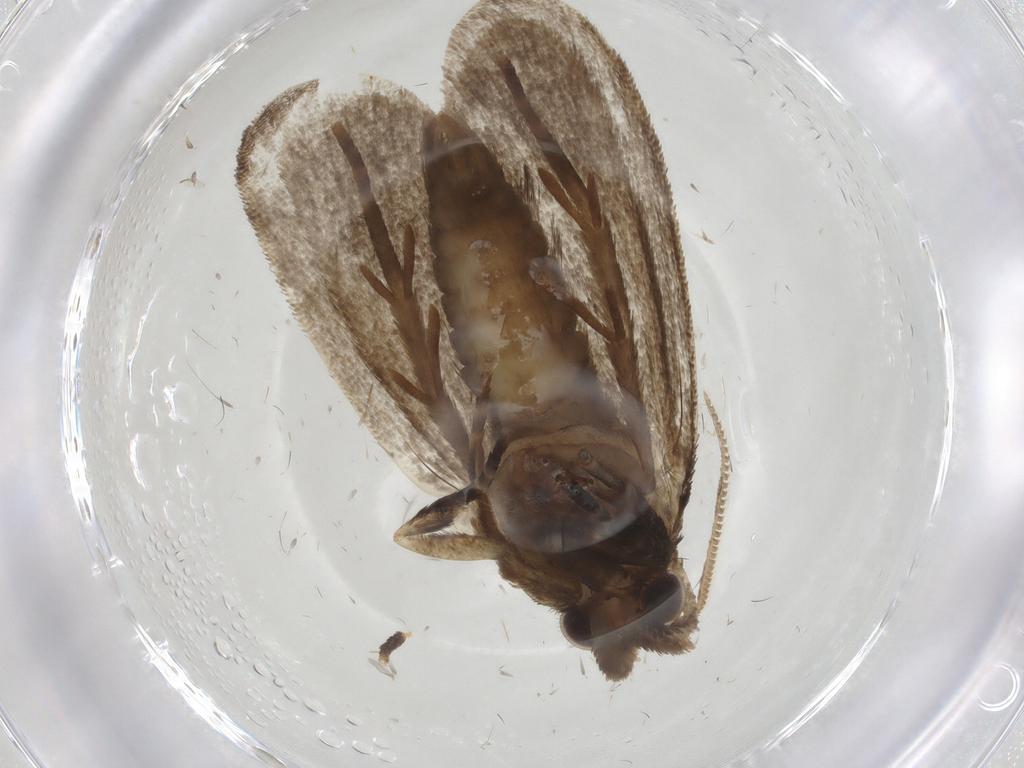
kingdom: Animalia
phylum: Arthropoda
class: Insecta
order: Lepidoptera
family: Tineidae
